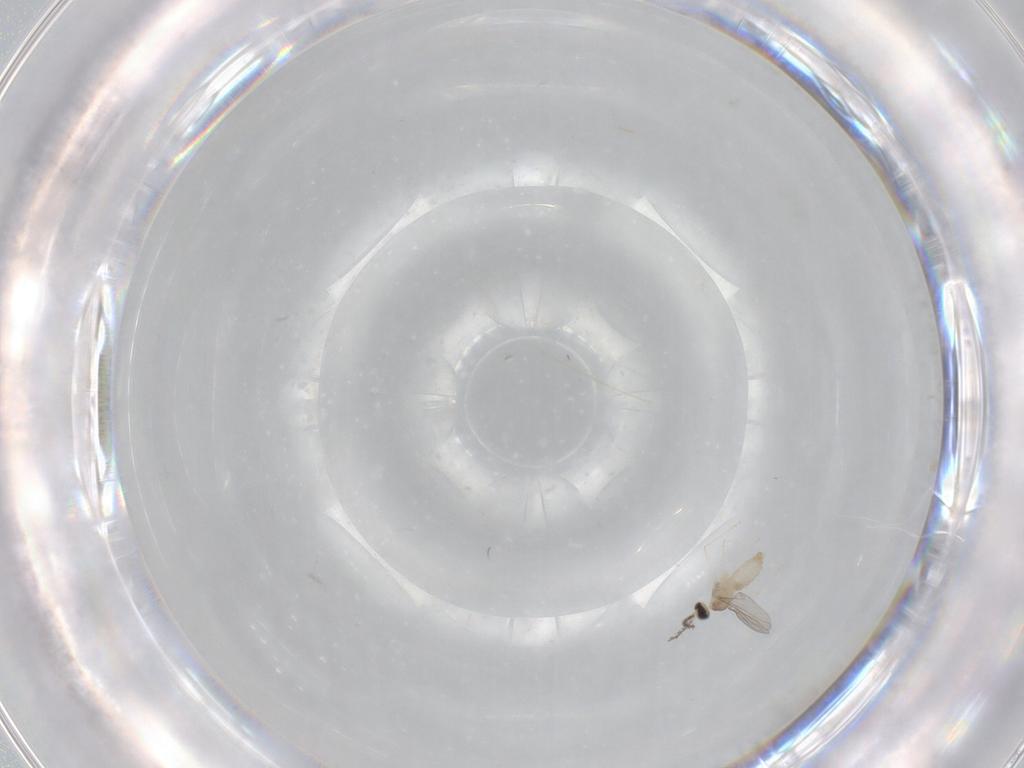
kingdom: Animalia
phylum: Arthropoda
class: Insecta
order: Diptera
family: Cecidomyiidae
